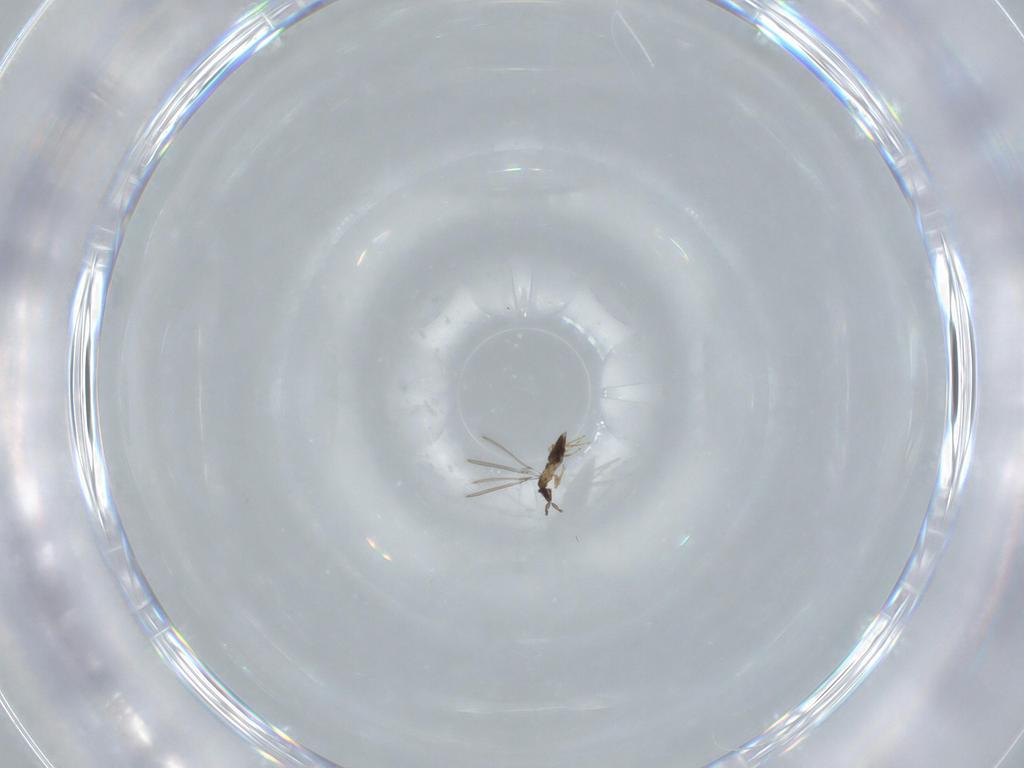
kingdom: Animalia
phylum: Arthropoda
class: Insecta
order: Hymenoptera
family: Mymaridae
